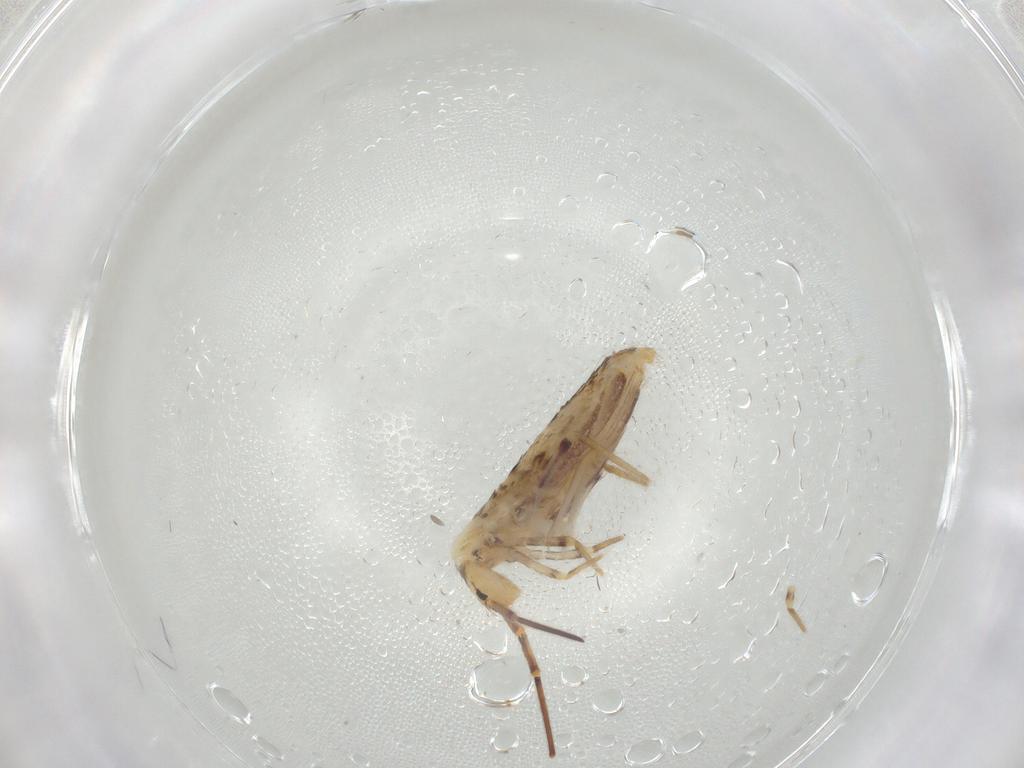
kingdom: Animalia
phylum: Arthropoda
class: Collembola
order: Poduromorpha
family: Hypogastruridae
